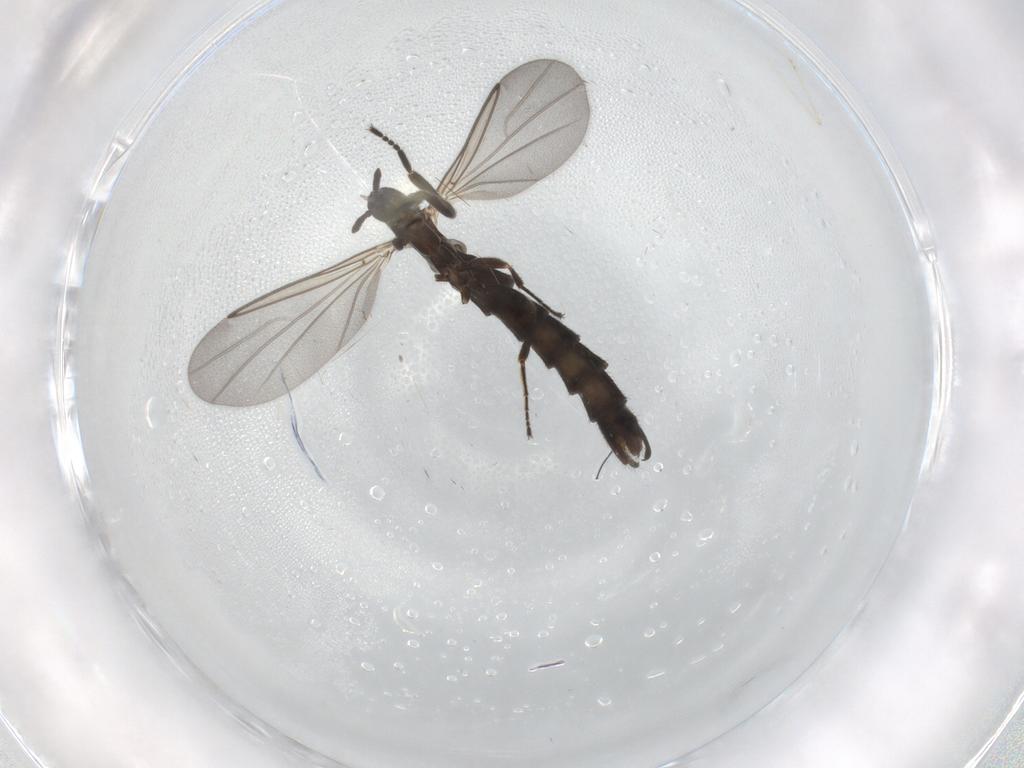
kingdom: Animalia
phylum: Arthropoda
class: Insecta
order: Diptera
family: Scatopsidae
